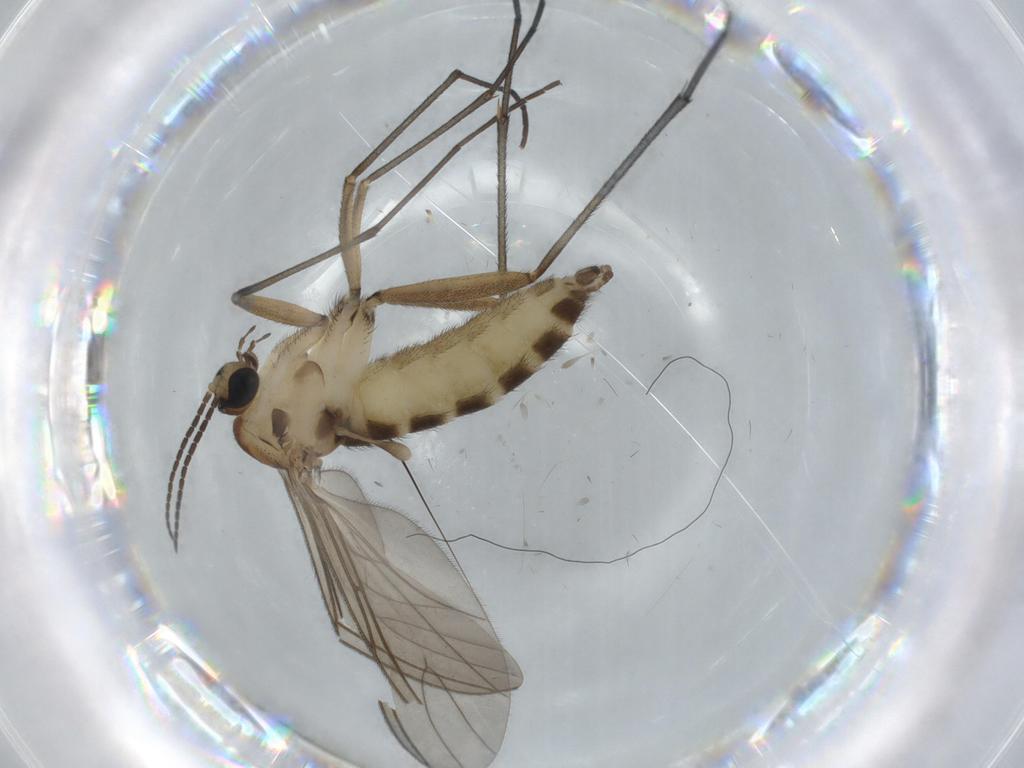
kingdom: Animalia
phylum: Arthropoda
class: Insecta
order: Diptera
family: Sciaridae
